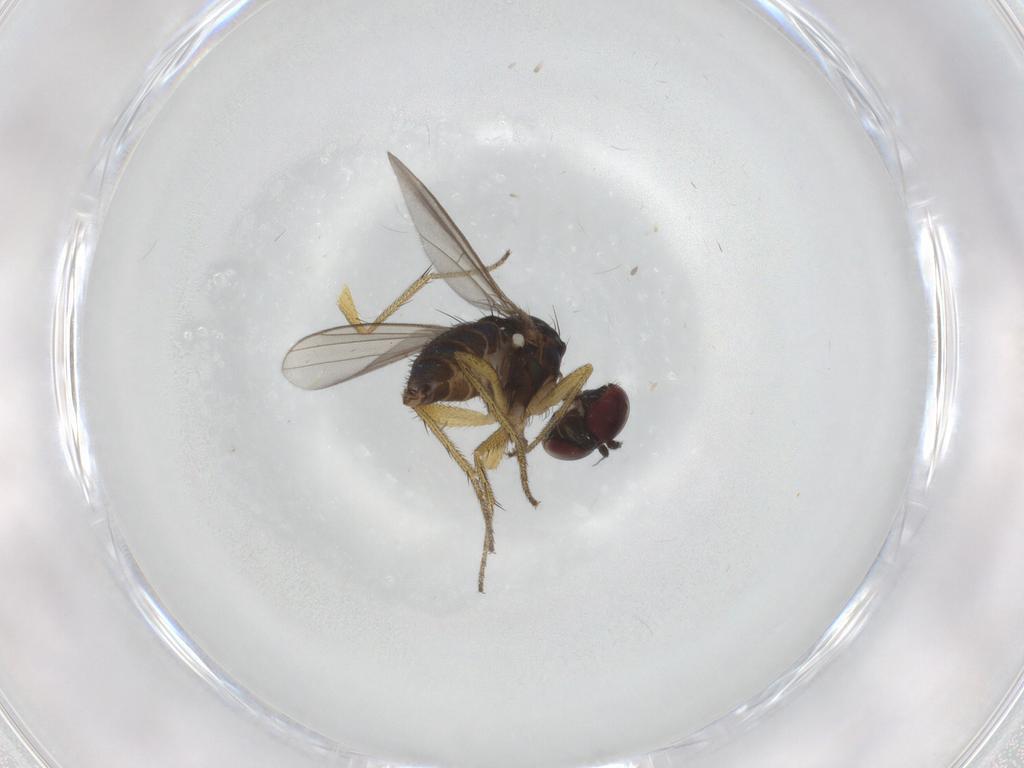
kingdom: Animalia
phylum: Arthropoda
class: Insecta
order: Diptera
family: Dolichopodidae
